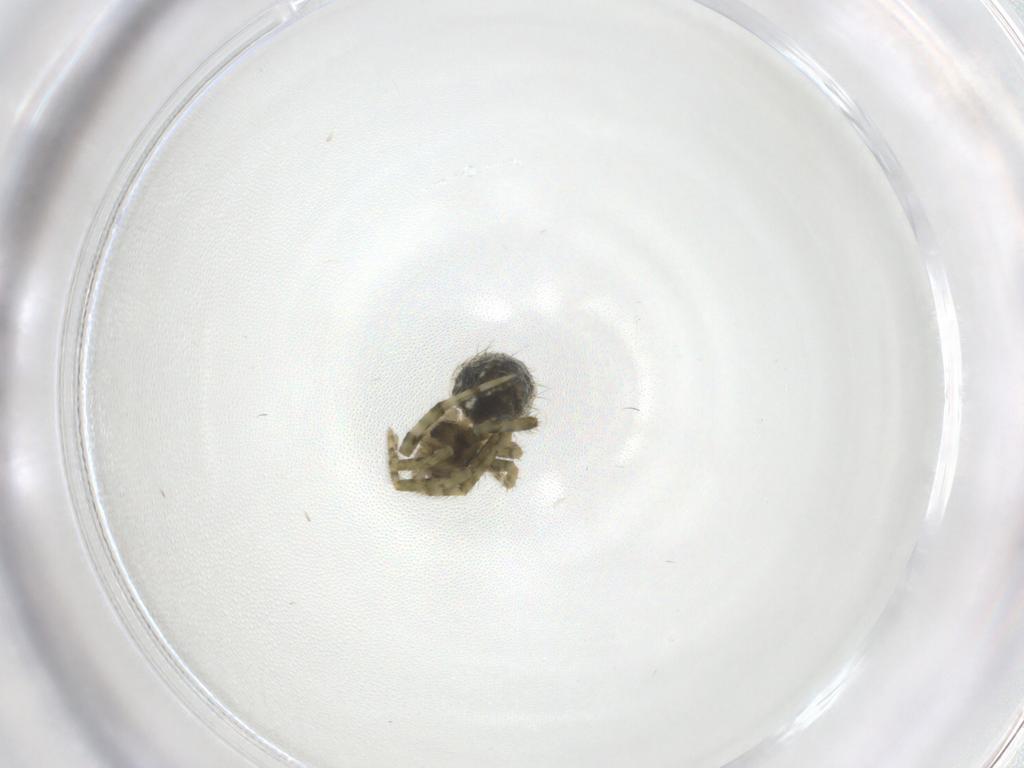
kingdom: Animalia
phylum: Arthropoda
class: Arachnida
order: Araneae
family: Theridiidae
